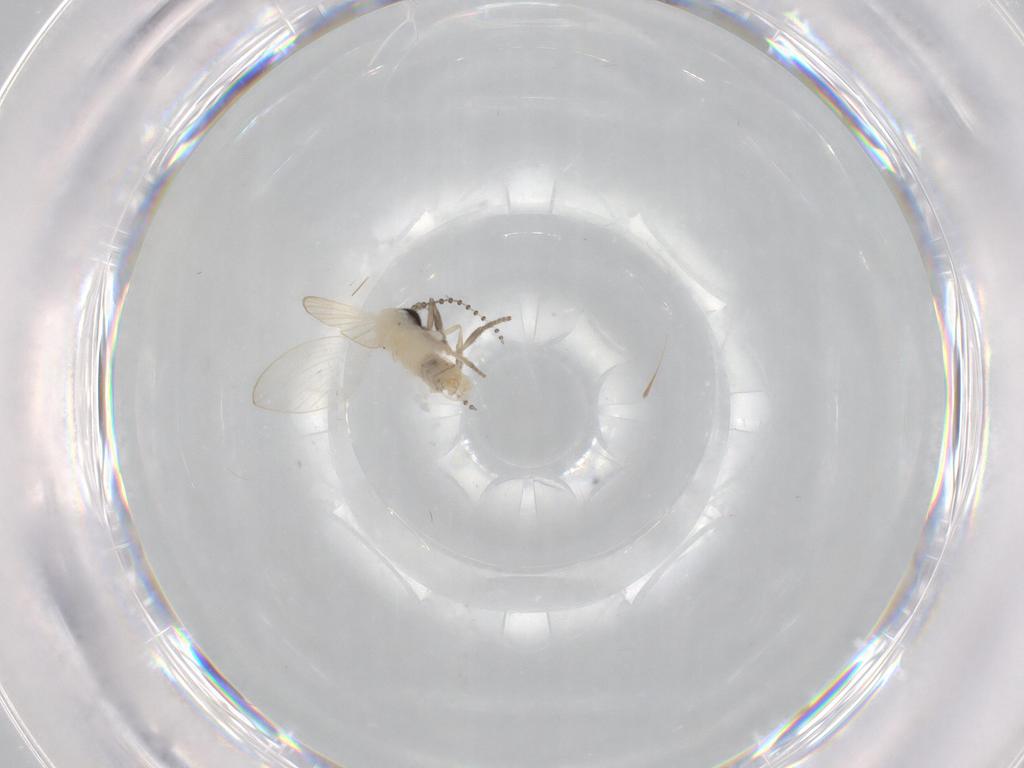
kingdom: Animalia
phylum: Arthropoda
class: Insecta
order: Diptera
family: Psychodidae
